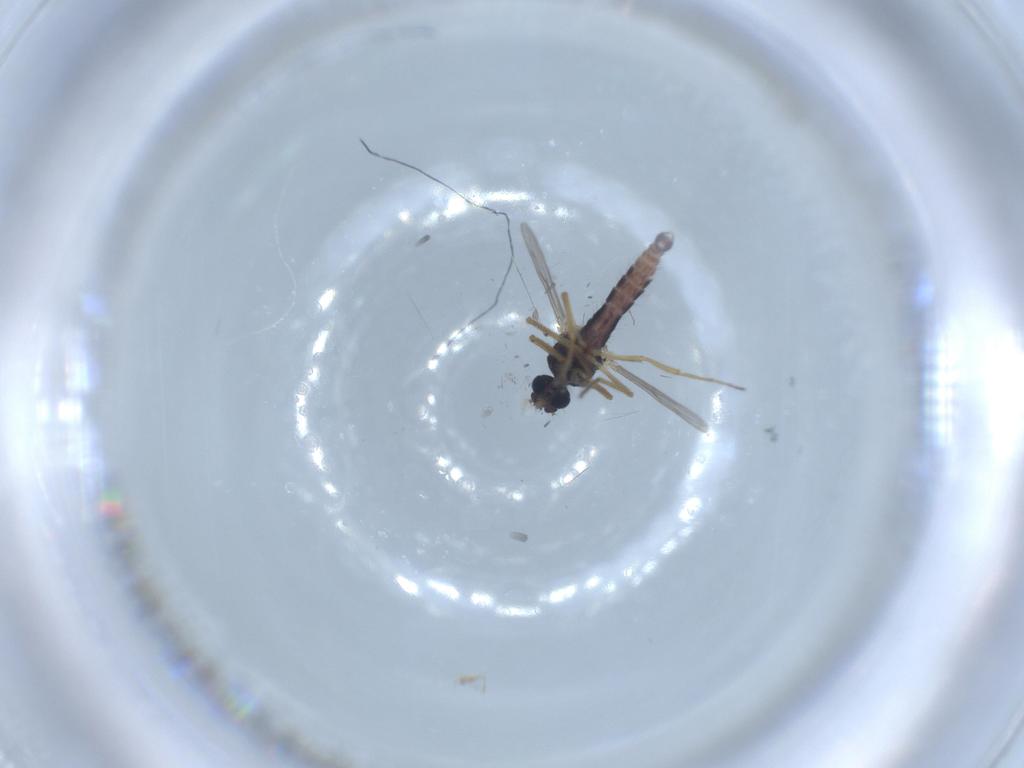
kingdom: Animalia
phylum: Arthropoda
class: Insecta
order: Diptera
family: Ceratopogonidae
